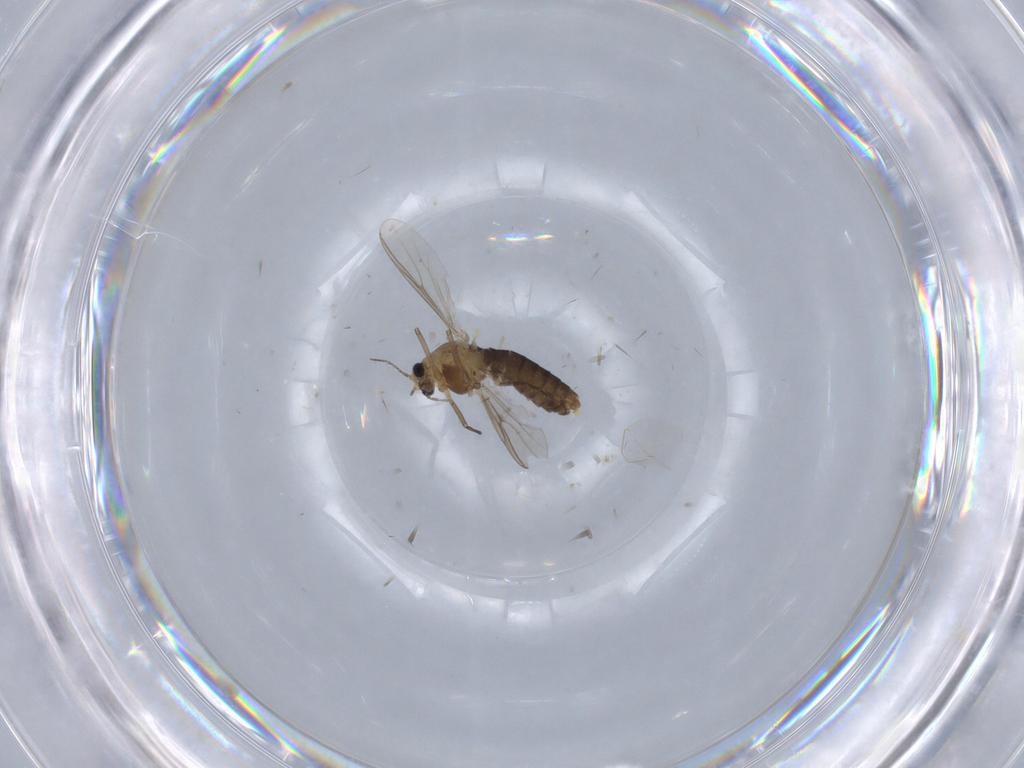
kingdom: Animalia
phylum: Arthropoda
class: Insecta
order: Diptera
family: Chironomidae
